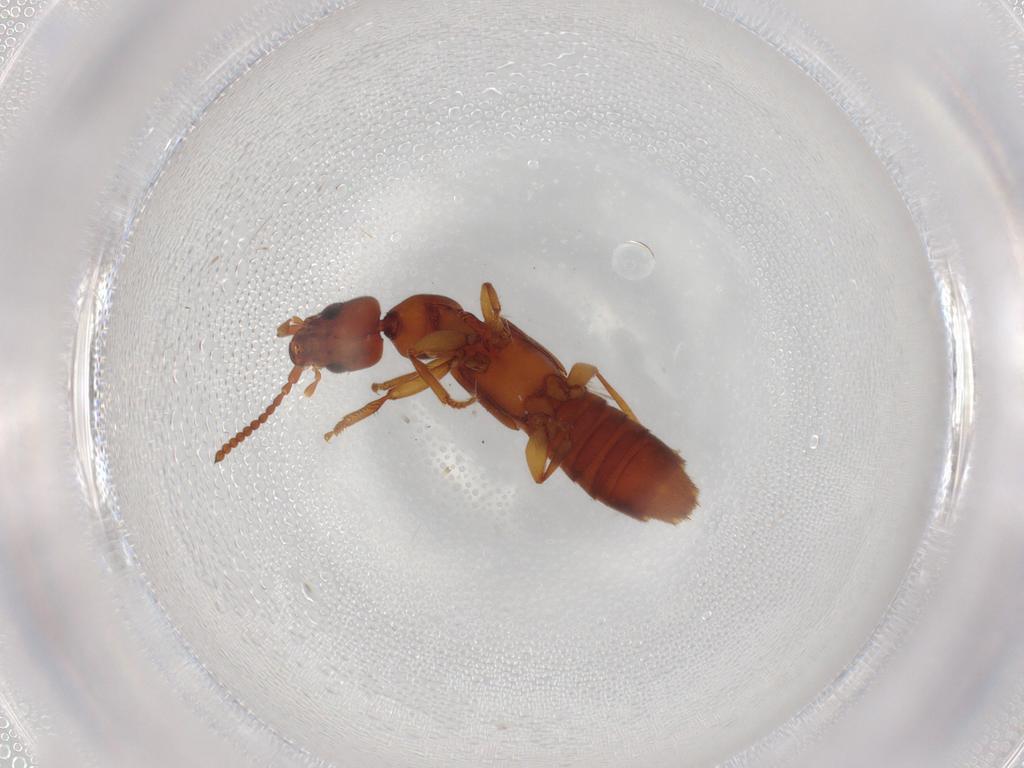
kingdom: Animalia
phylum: Arthropoda
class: Insecta
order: Coleoptera
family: Staphylinidae
